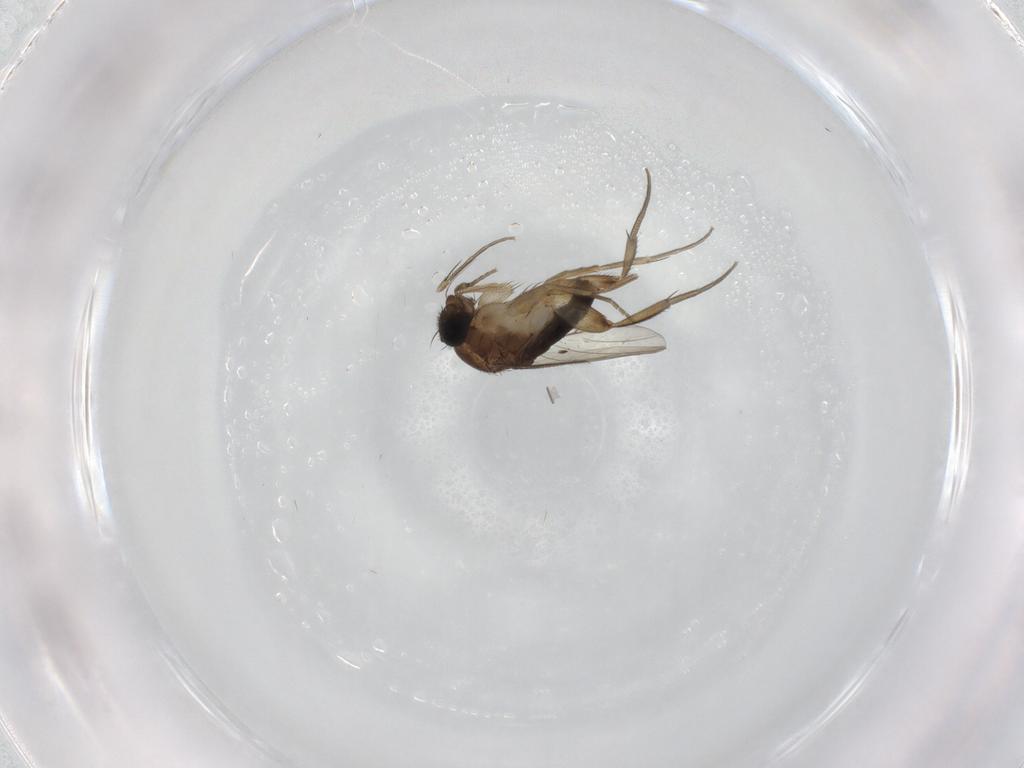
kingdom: Animalia
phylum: Arthropoda
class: Insecta
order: Diptera
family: Phoridae
